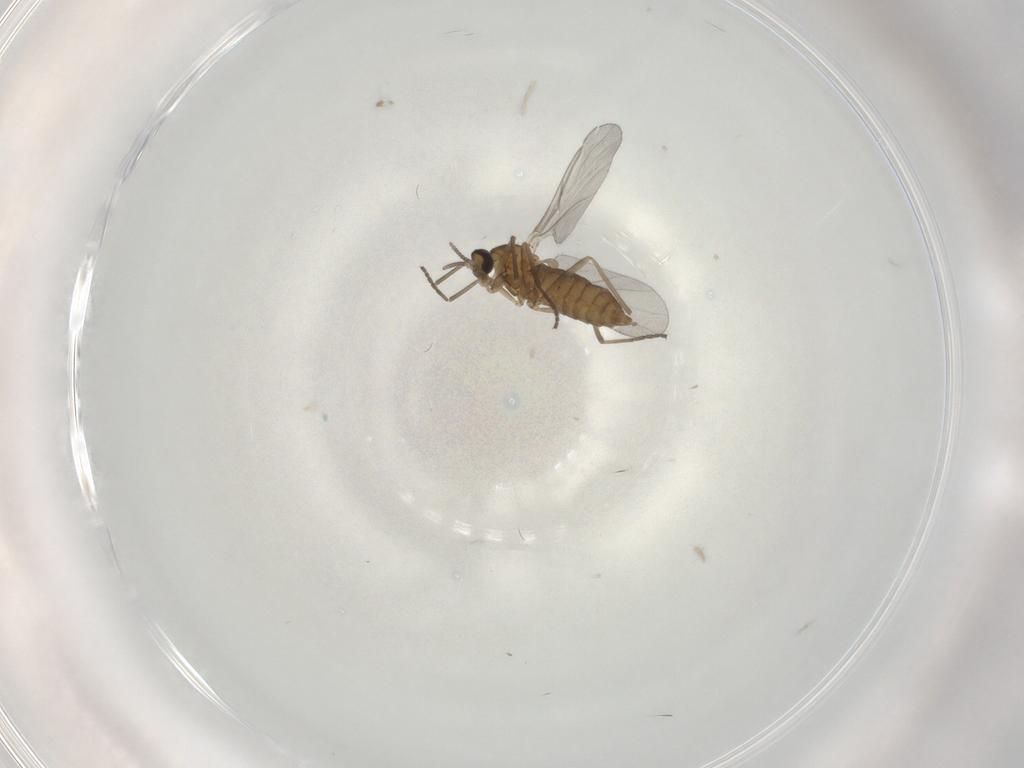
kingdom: Animalia
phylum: Arthropoda
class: Insecta
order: Diptera
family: Cecidomyiidae
